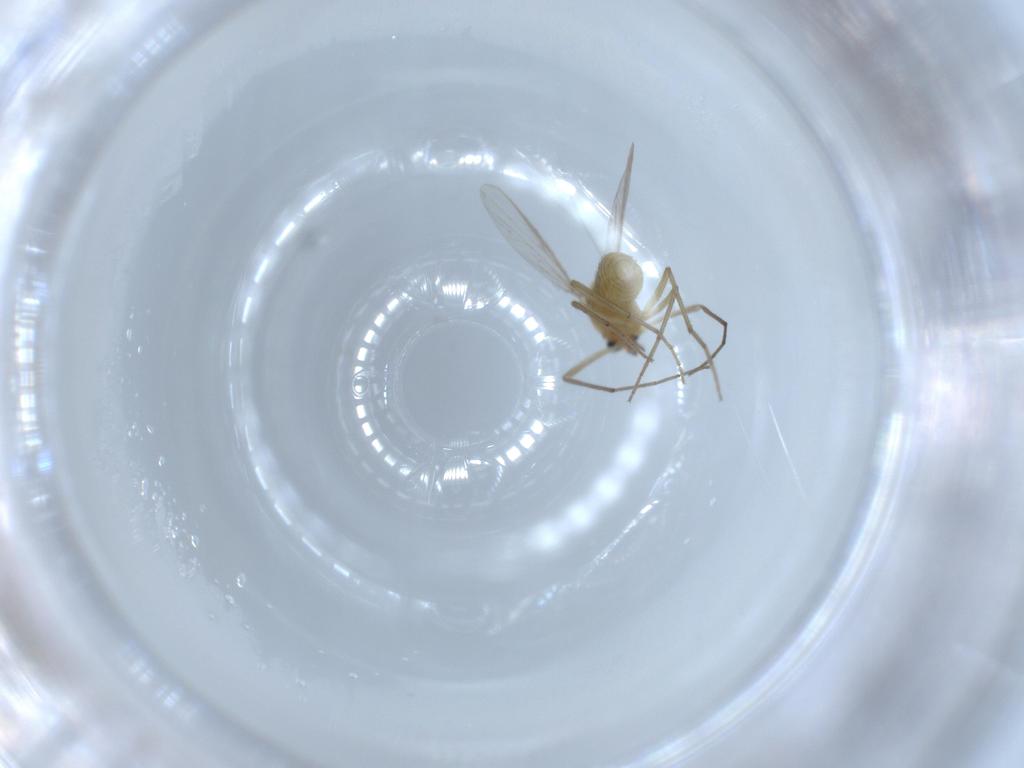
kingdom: Animalia
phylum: Arthropoda
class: Insecta
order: Diptera
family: Chironomidae
